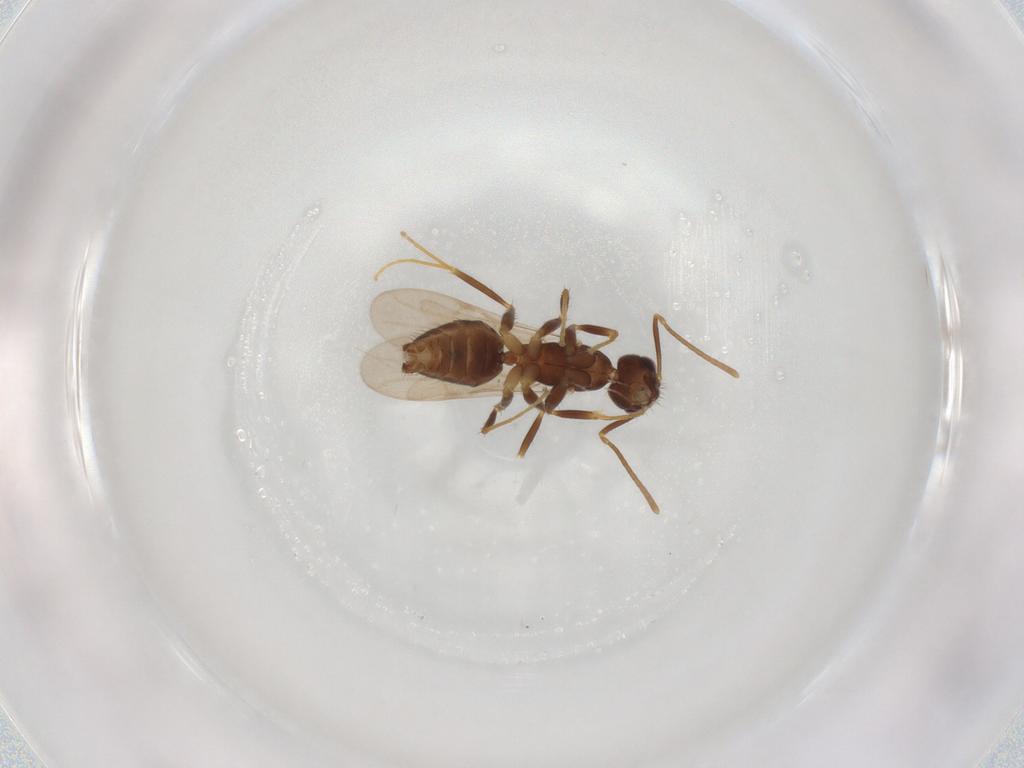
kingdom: Animalia
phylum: Arthropoda
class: Insecta
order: Hymenoptera
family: Formicidae
